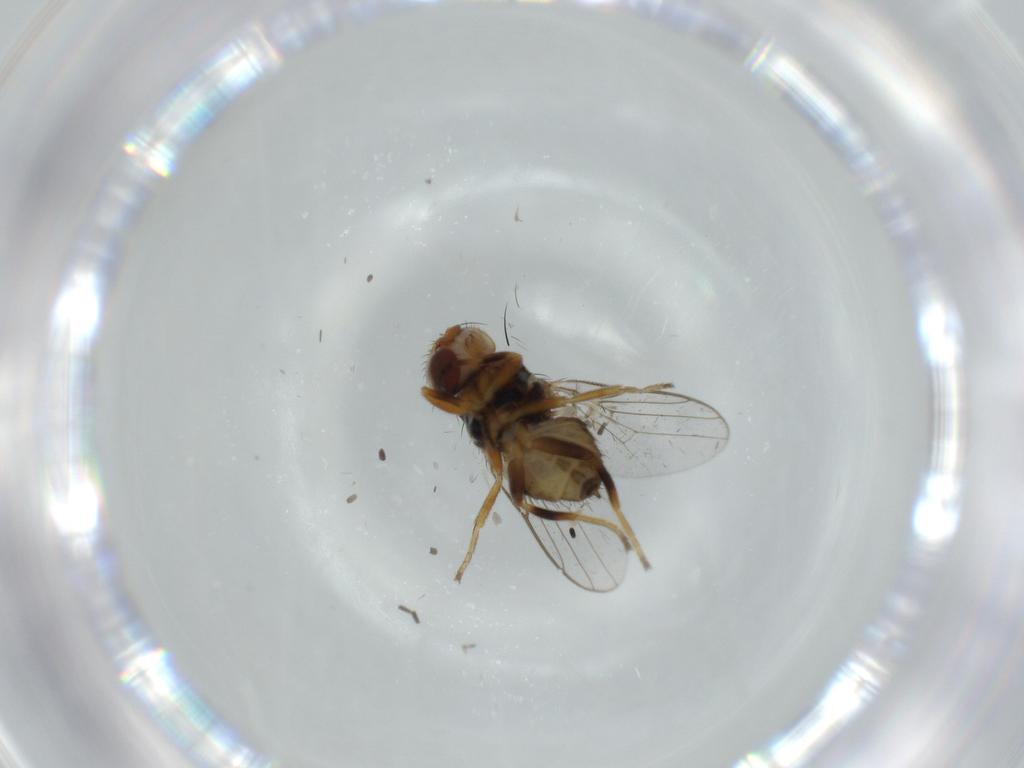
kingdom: Animalia
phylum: Arthropoda
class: Insecta
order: Diptera
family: Chloropidae
